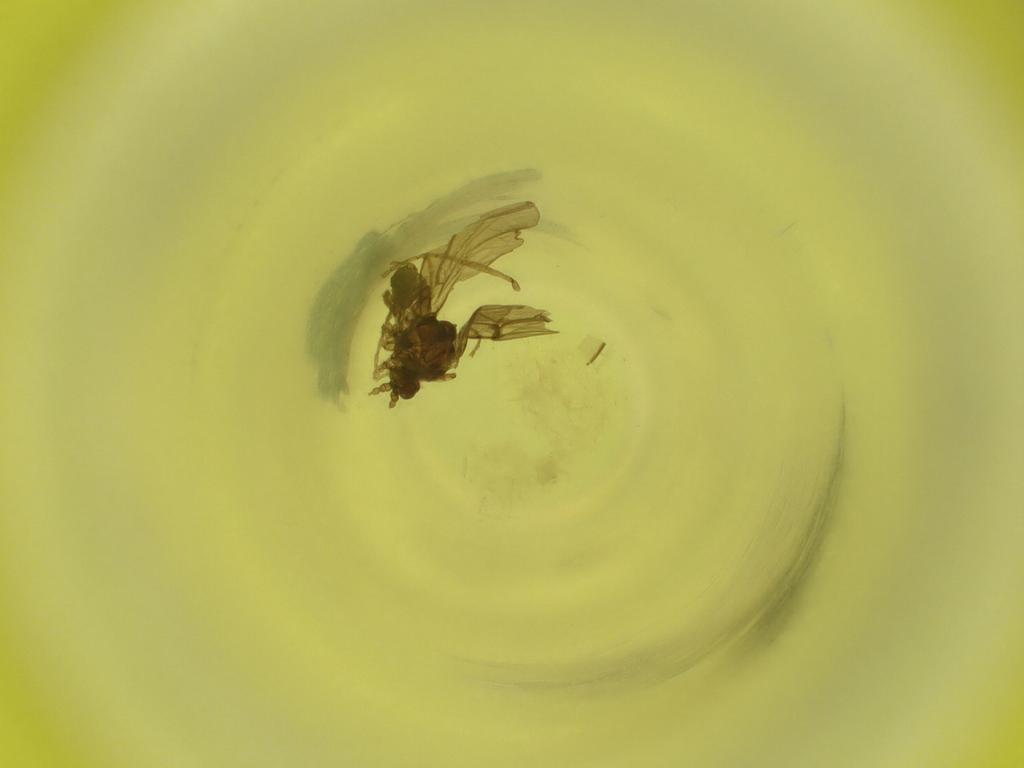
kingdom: Animalia
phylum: Arthropoda
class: Insecta
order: Diptera
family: Cecidomyiidae
